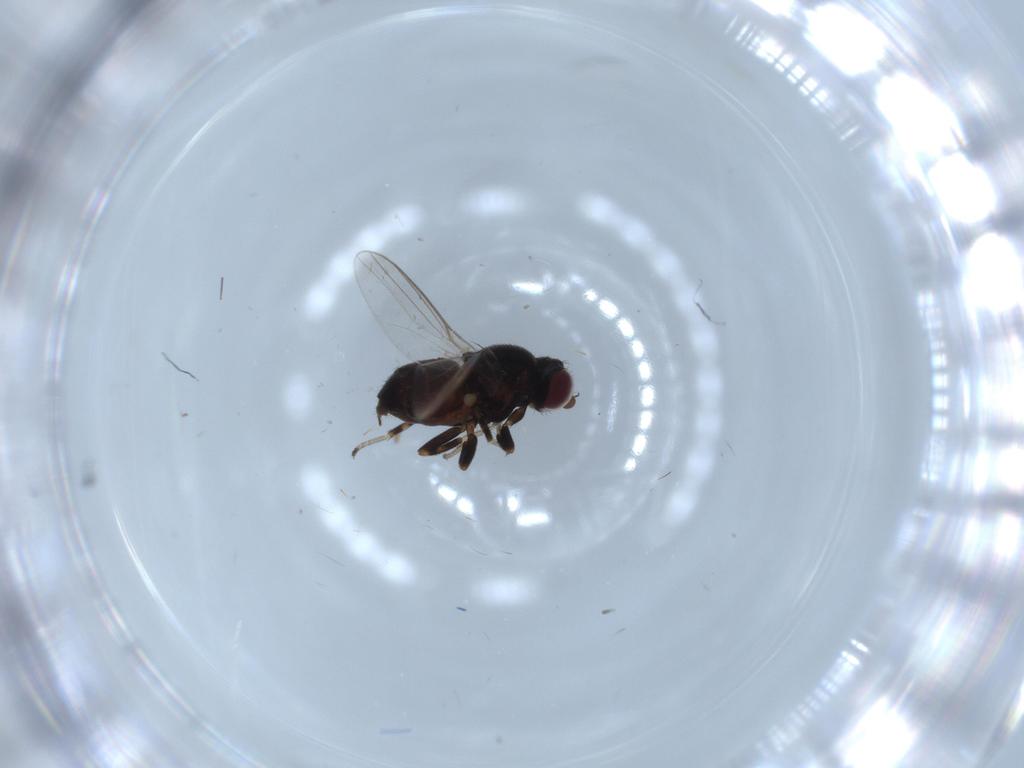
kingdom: Animalia
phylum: Arthropoda
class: Insecta
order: Diptera
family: Chloropidae
